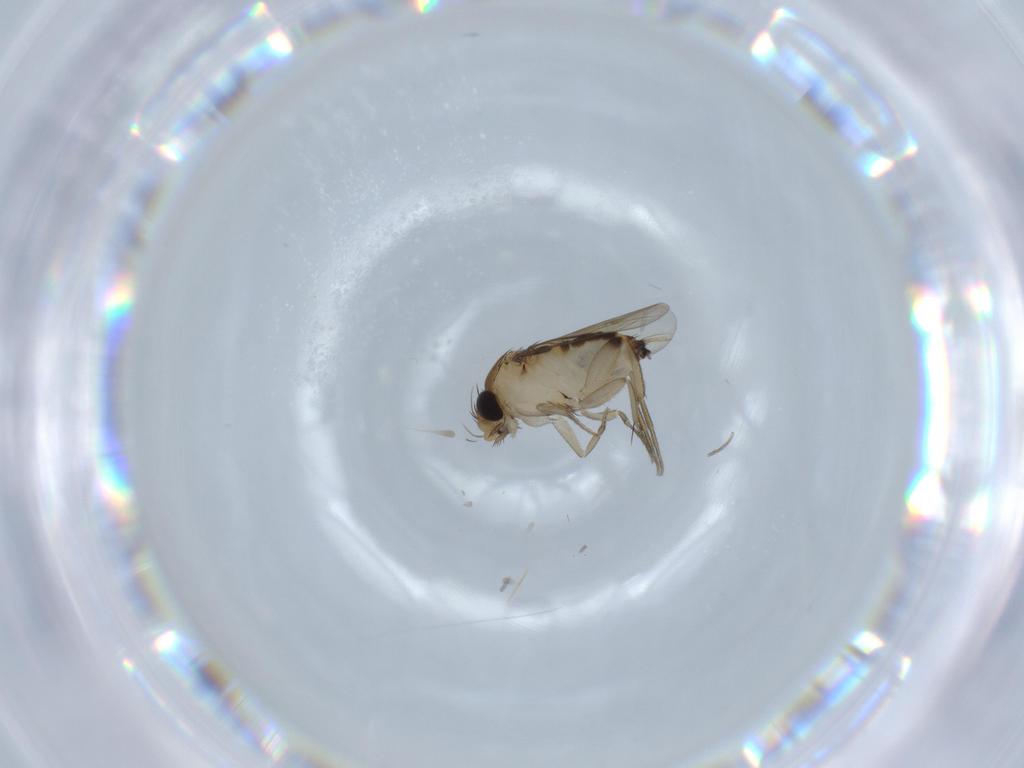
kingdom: Animalia
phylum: Arthropoda
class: Insecta
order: Diptera
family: Phoridae
